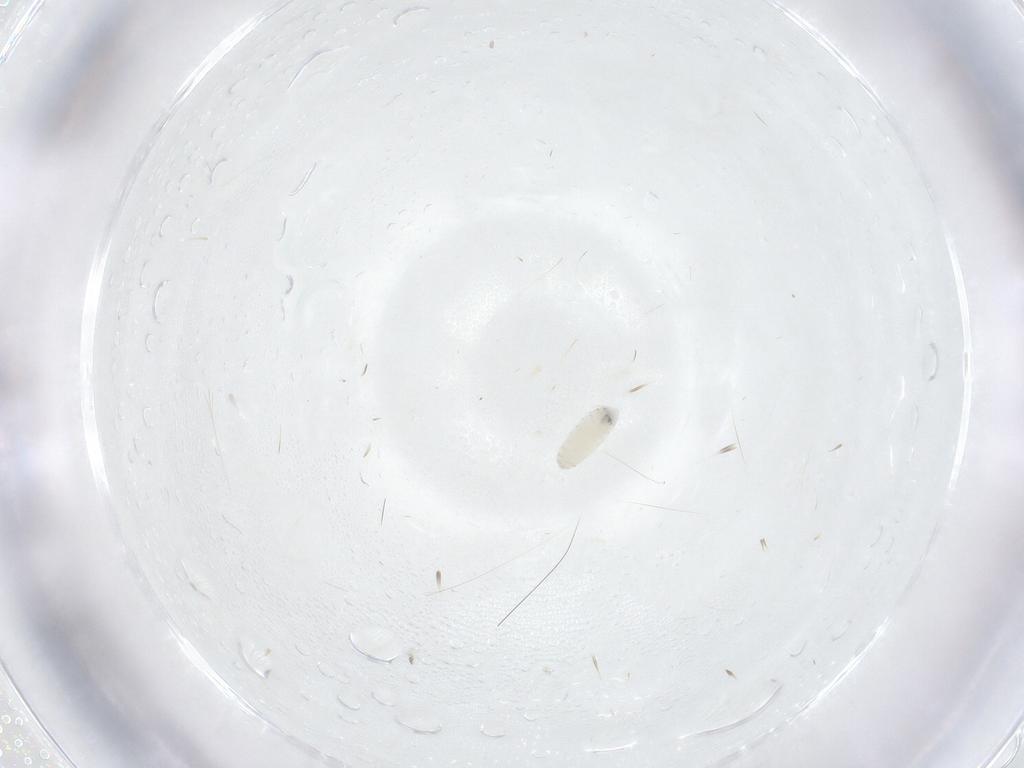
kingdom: Animalia
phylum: Arthropoda
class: Insecta
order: Diptera
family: Tachinidae
